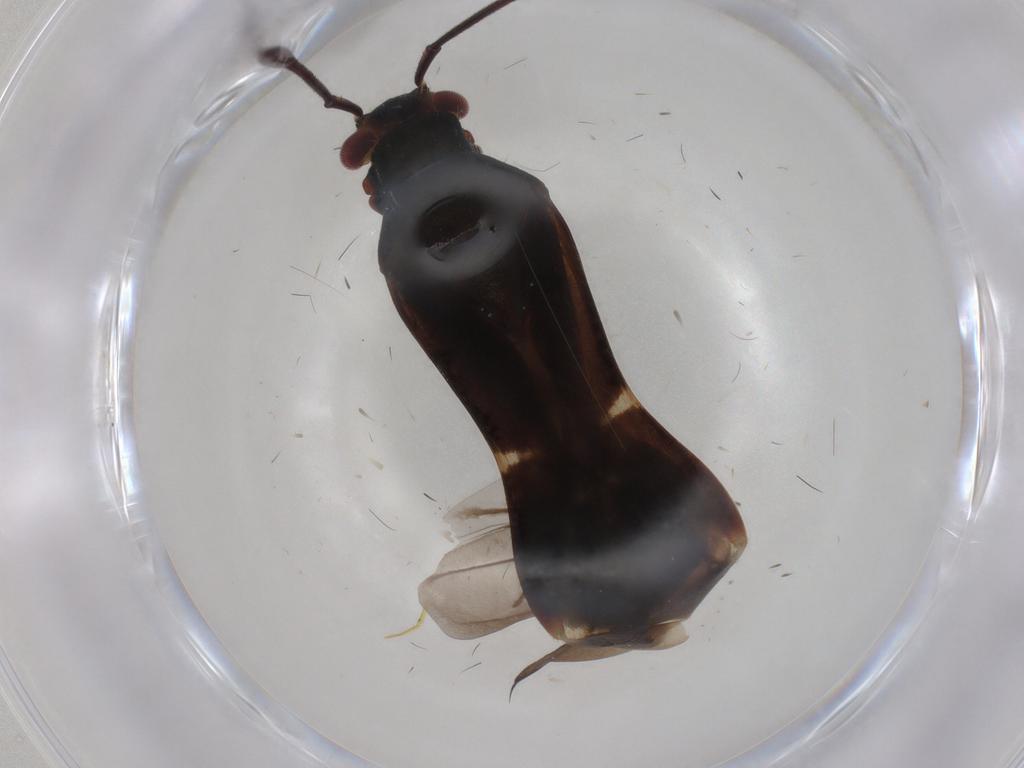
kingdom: Animalia
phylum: Arthropoda
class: Insecta
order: Hemiptera
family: Miridae
